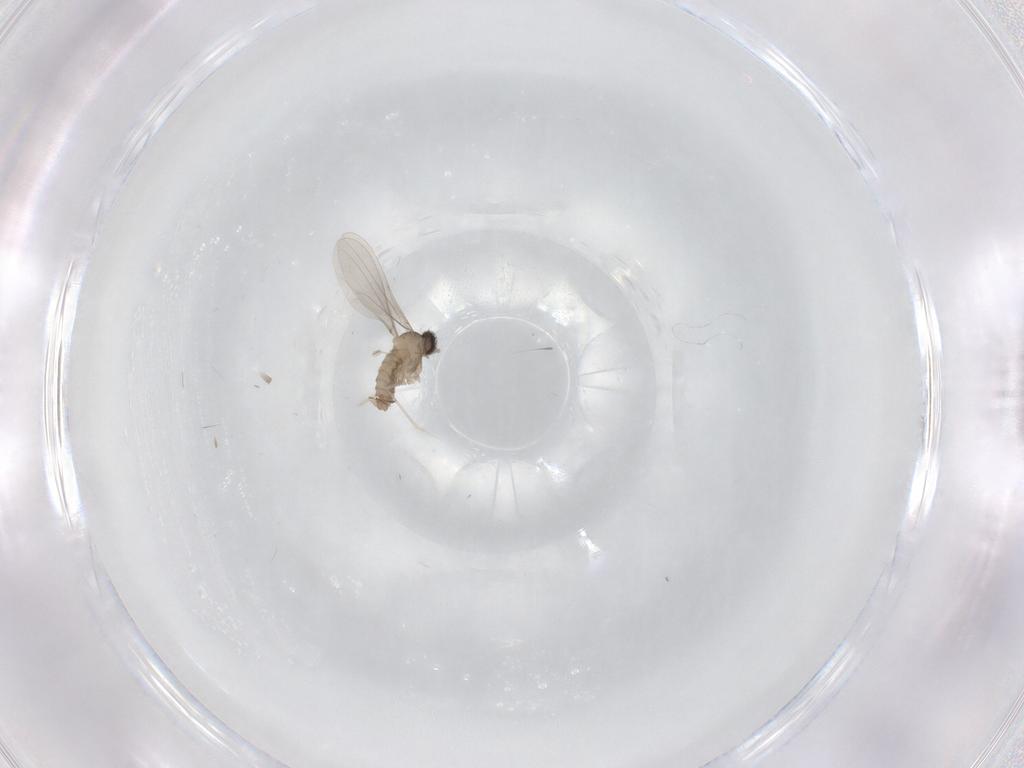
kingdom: Animalia
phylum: Arthropoda
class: Insecta
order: Diptera
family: Cecidomyiidae
